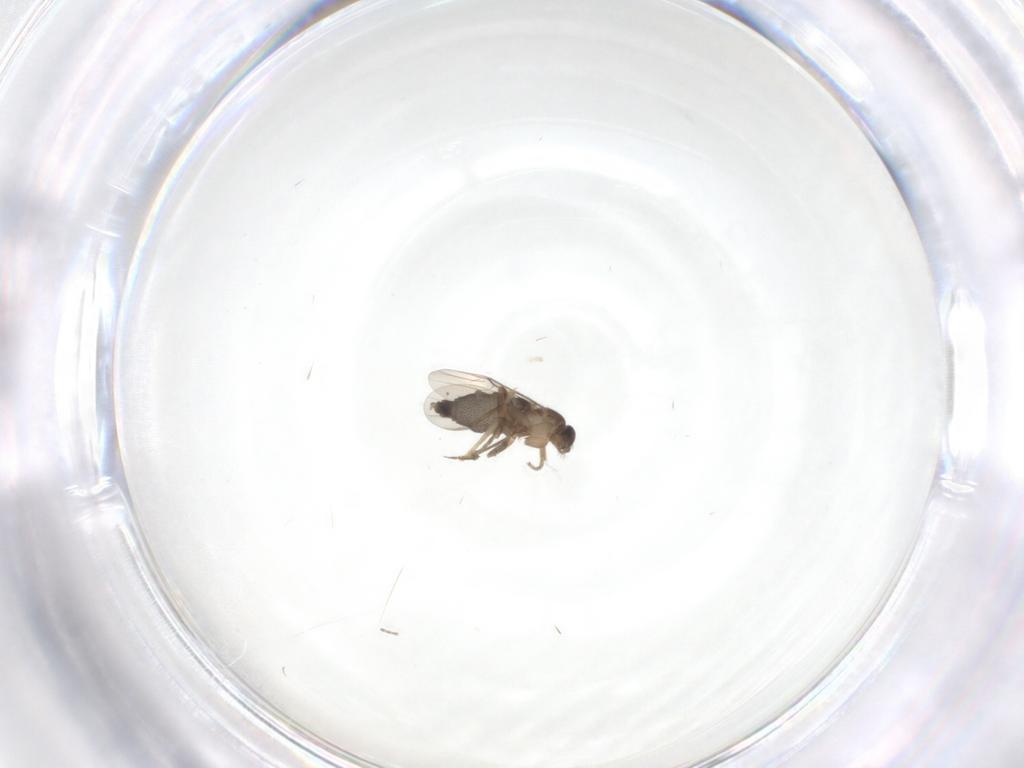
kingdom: Animalia
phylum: Arthropoda
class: Insecta
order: Diptera
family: Phoridae
